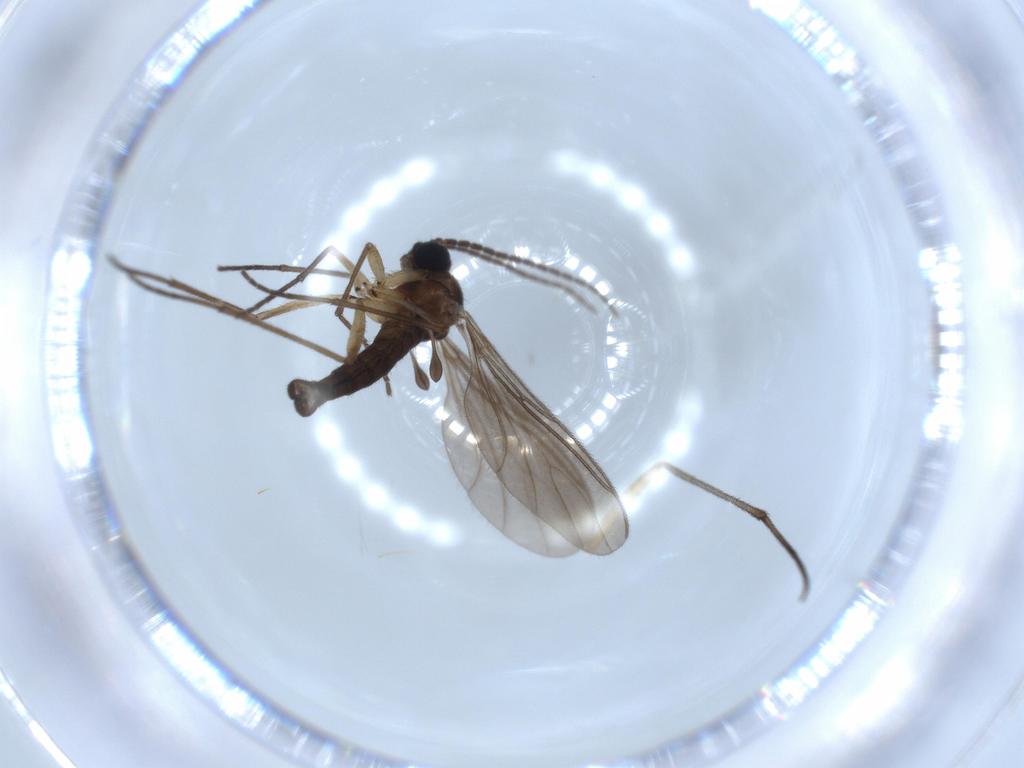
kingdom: Animalia
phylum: Arthropoda
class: Insecta
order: Diptera
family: Sciaridae
